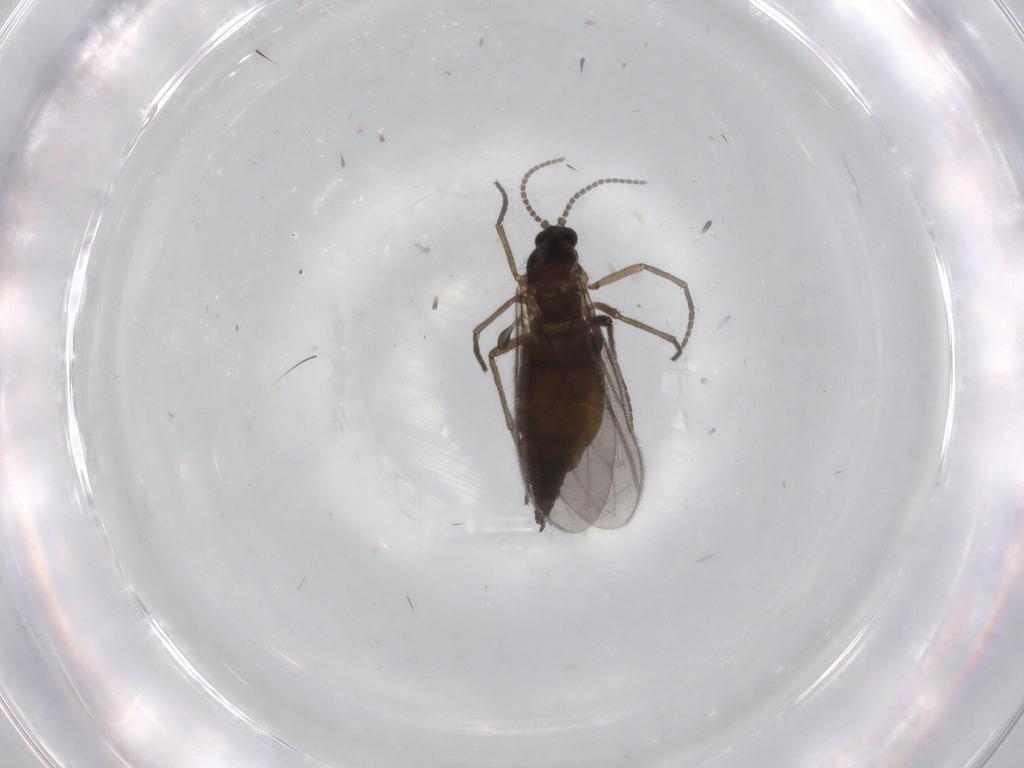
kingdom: Animalia
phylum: Arthropoda
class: Insecta
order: Diptera
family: Sciaridae
